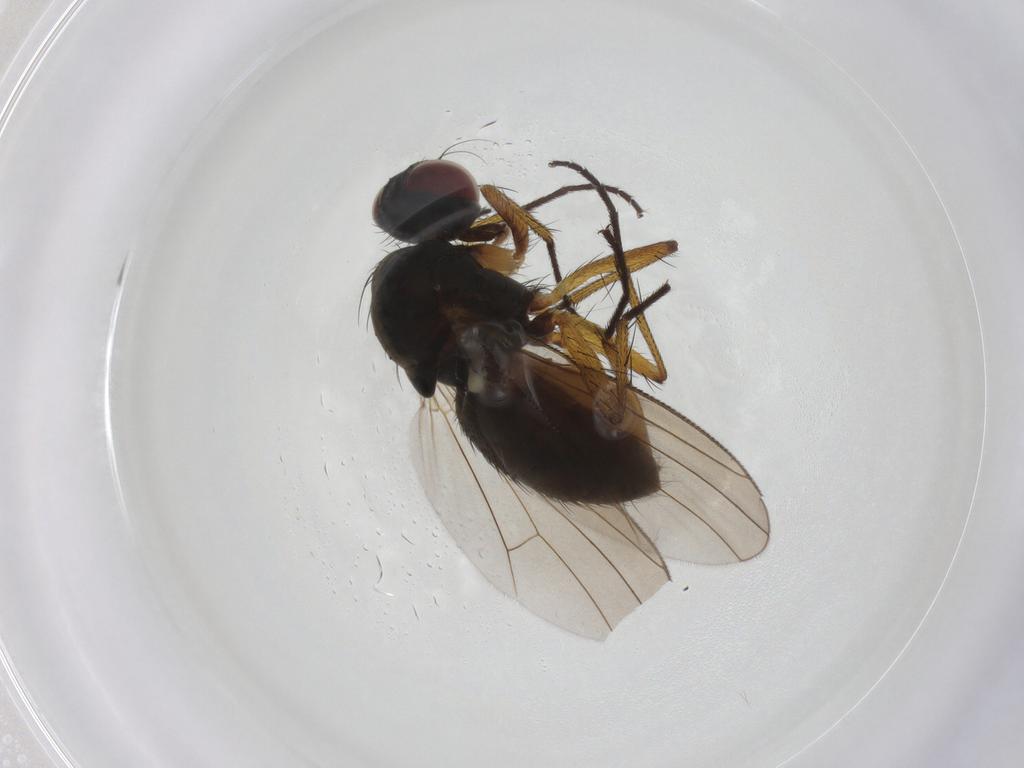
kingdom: Animalia
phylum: Arthropoda
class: Insecta
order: Diptera
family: Muscidae
